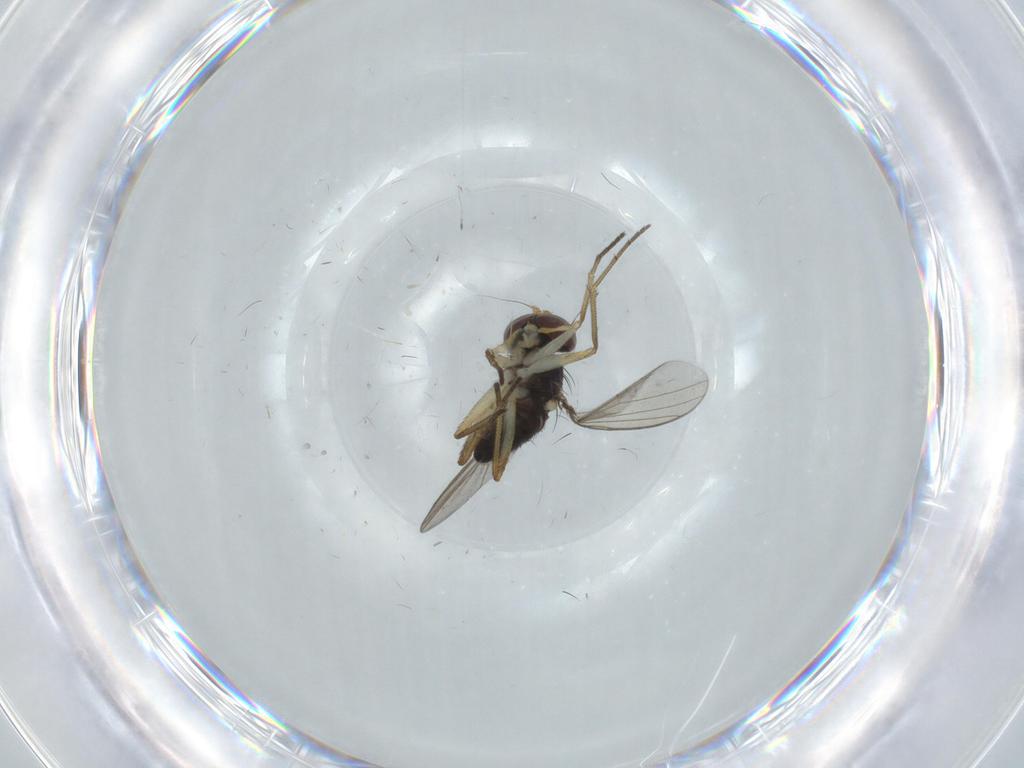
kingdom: Animalia
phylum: Arthropoda
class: Insecta
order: Diptera
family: Dolichopodidae
